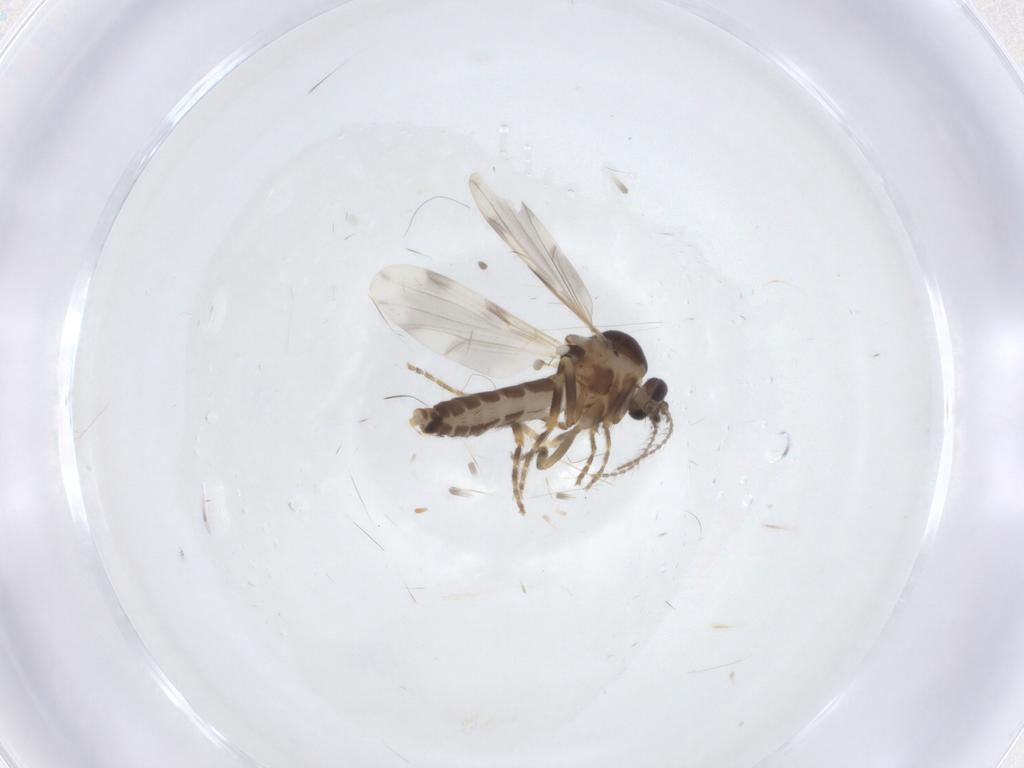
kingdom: Animalia
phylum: Arthropoda
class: Insecta
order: Diptera
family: Ceratopogonidae
